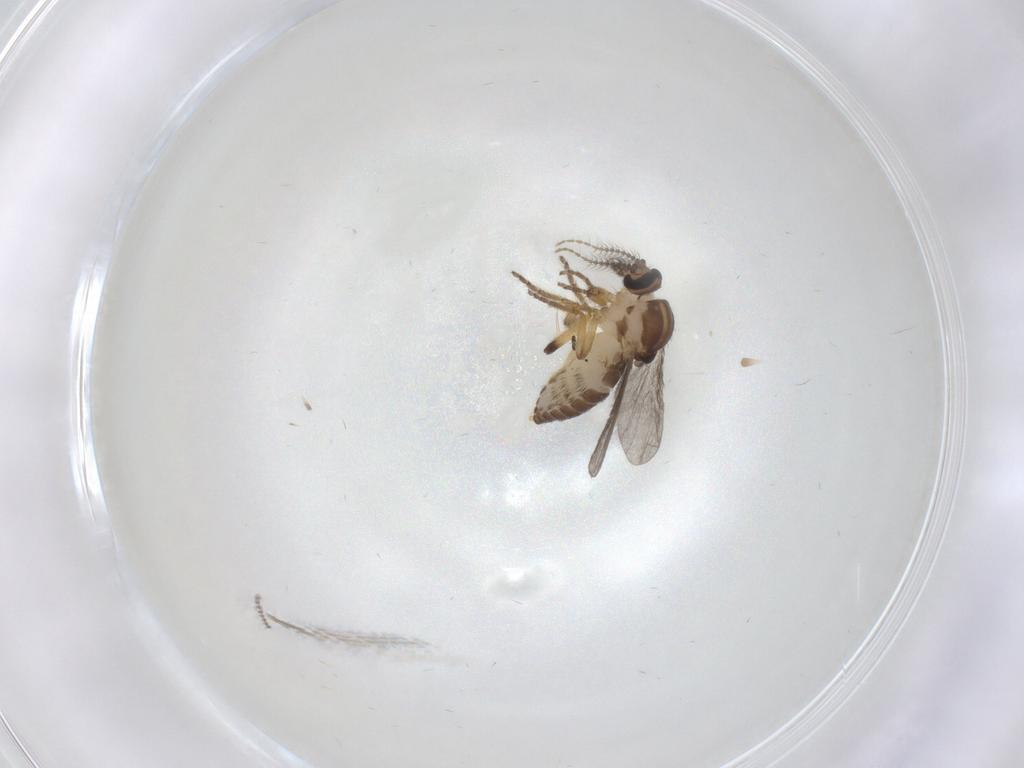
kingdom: Animalia
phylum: Arthropoda
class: Insecta
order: Diptera
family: Ceratopogonidae
